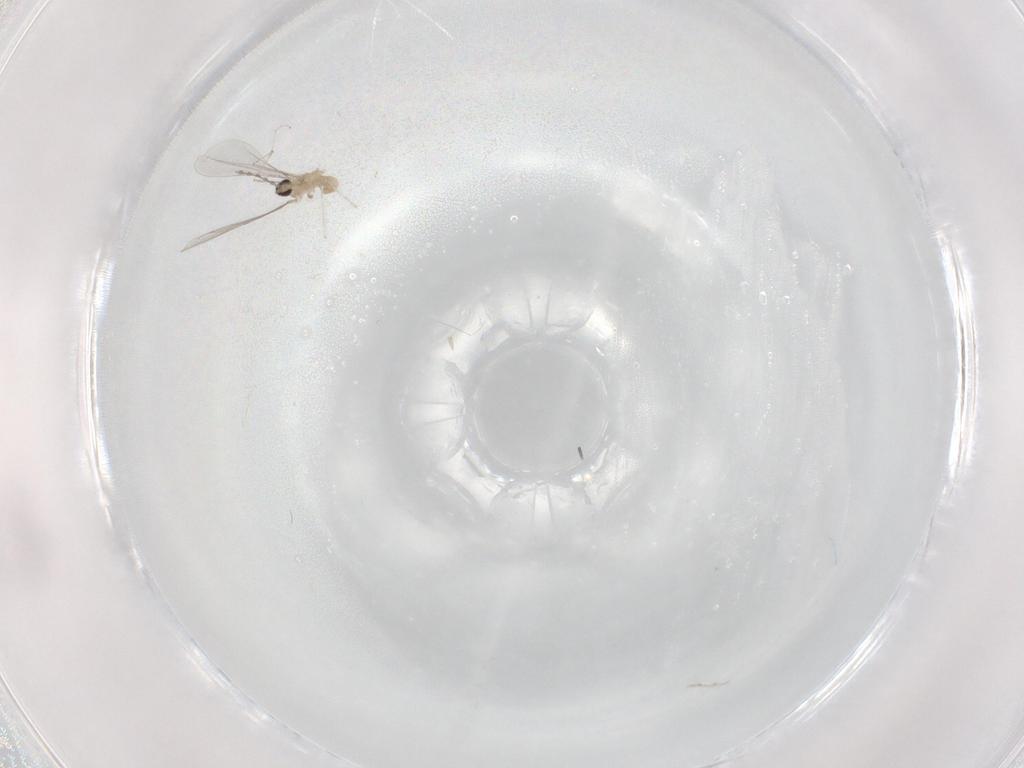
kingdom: Animalia
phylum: Arthropoda
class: Insecta
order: Diptera
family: Cecidomyiidae
